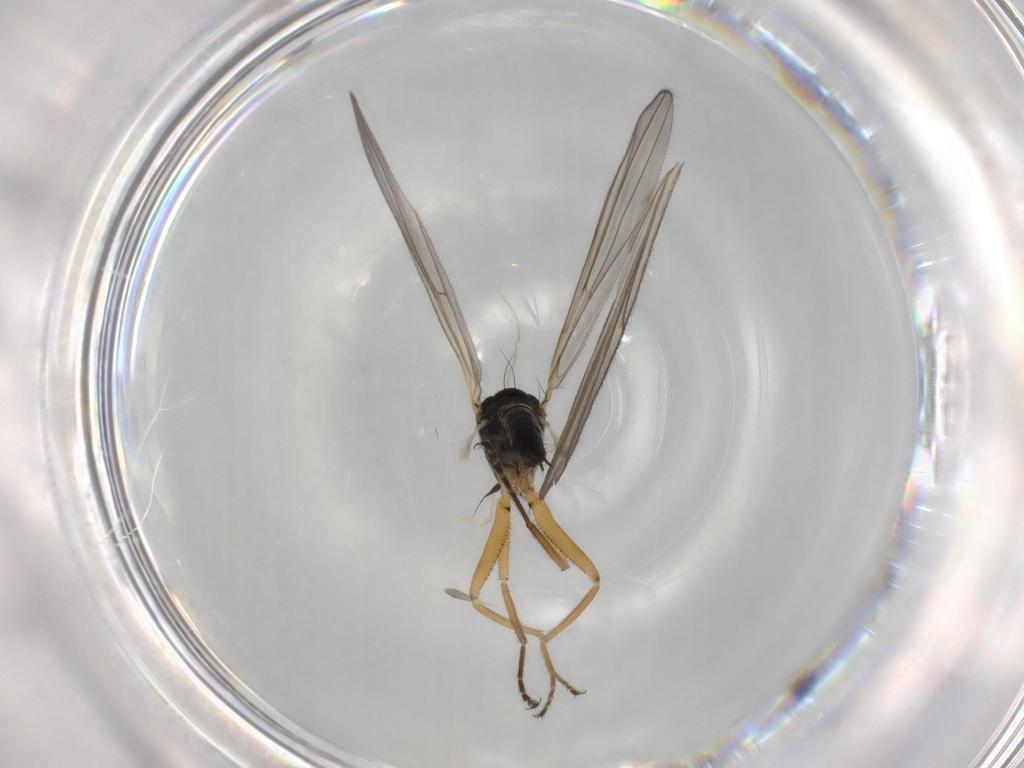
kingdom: Animalia
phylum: Arthropoda
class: Insecta
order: Diptera
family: Hybotidae
